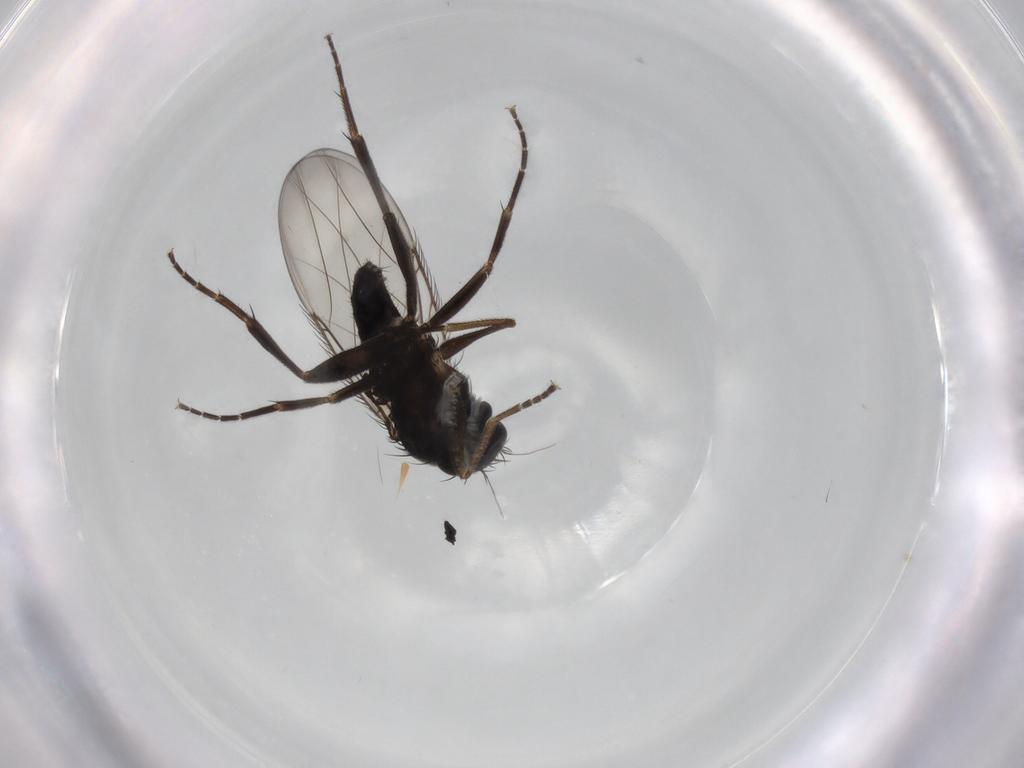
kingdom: Animalia
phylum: Arthropoda
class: Insecta
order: Diptera
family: Phoridae
